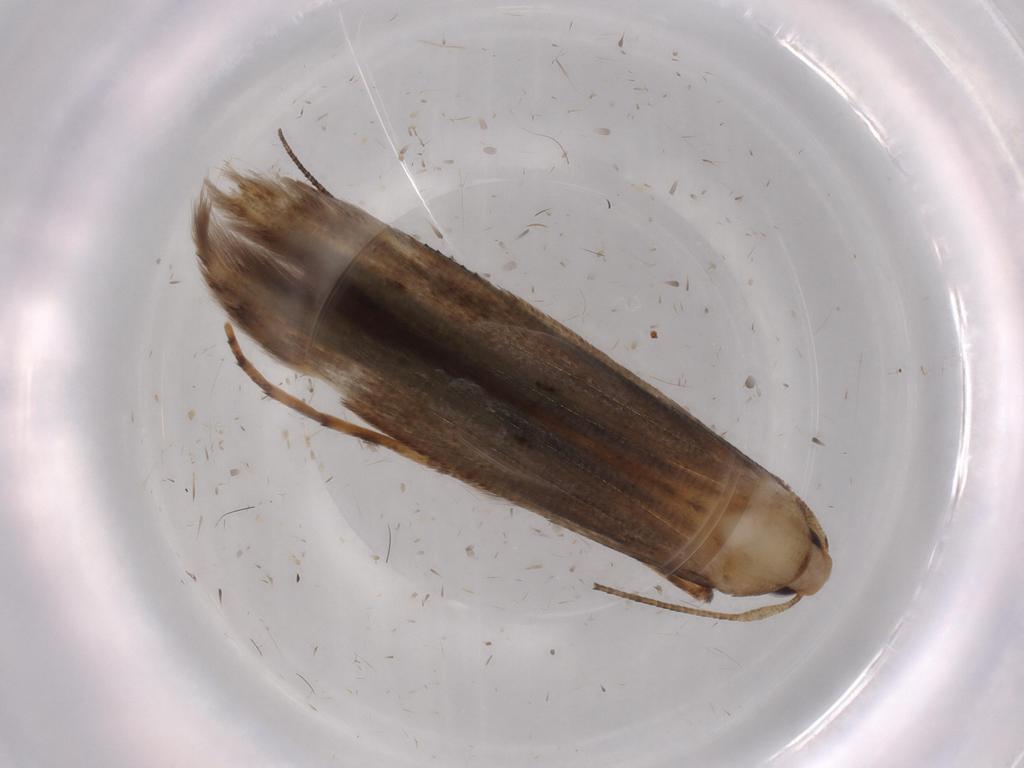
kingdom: Animalia
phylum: Arthropoda
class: Insecta
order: Lepidoptera
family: Heliodinidae
